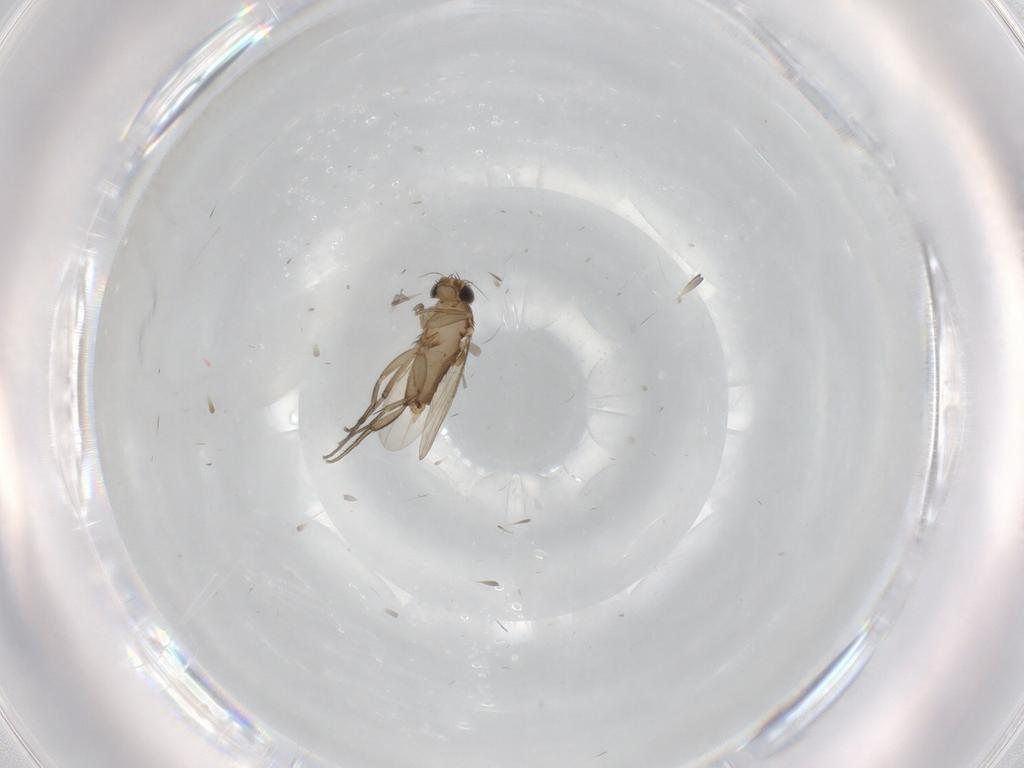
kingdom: Animalia
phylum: Arthropoda
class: Insecta
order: Diptera
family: Phoridae
